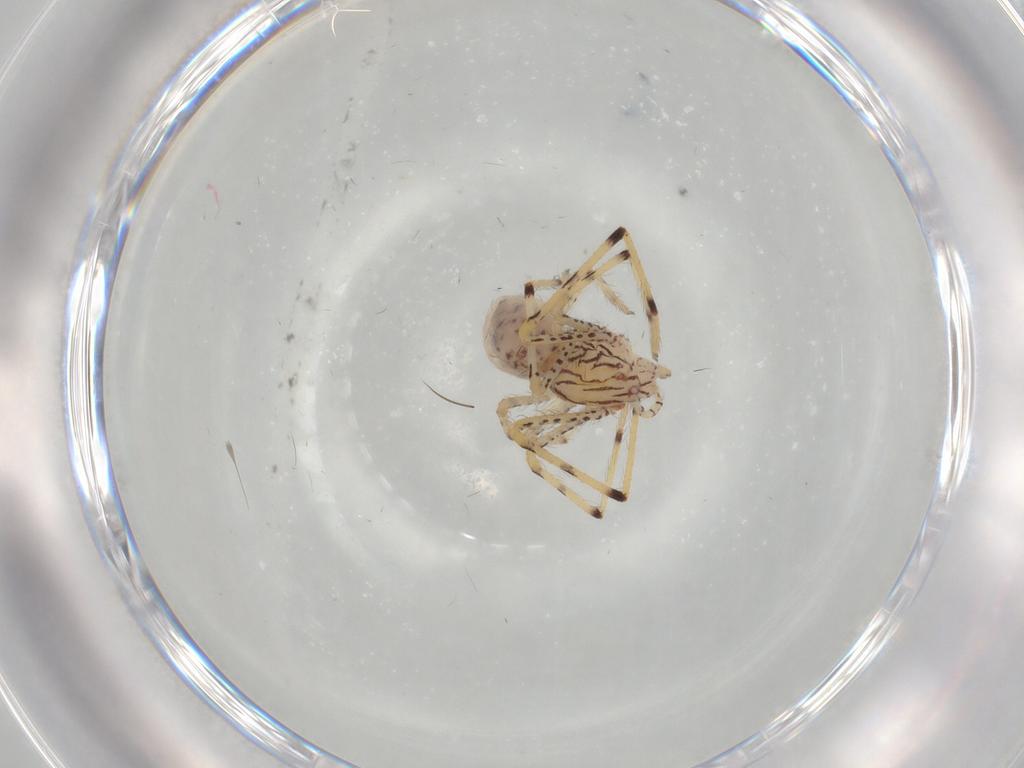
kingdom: Animalia
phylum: Arthropoda
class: Arachnida
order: Araneae
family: Scytodidae
